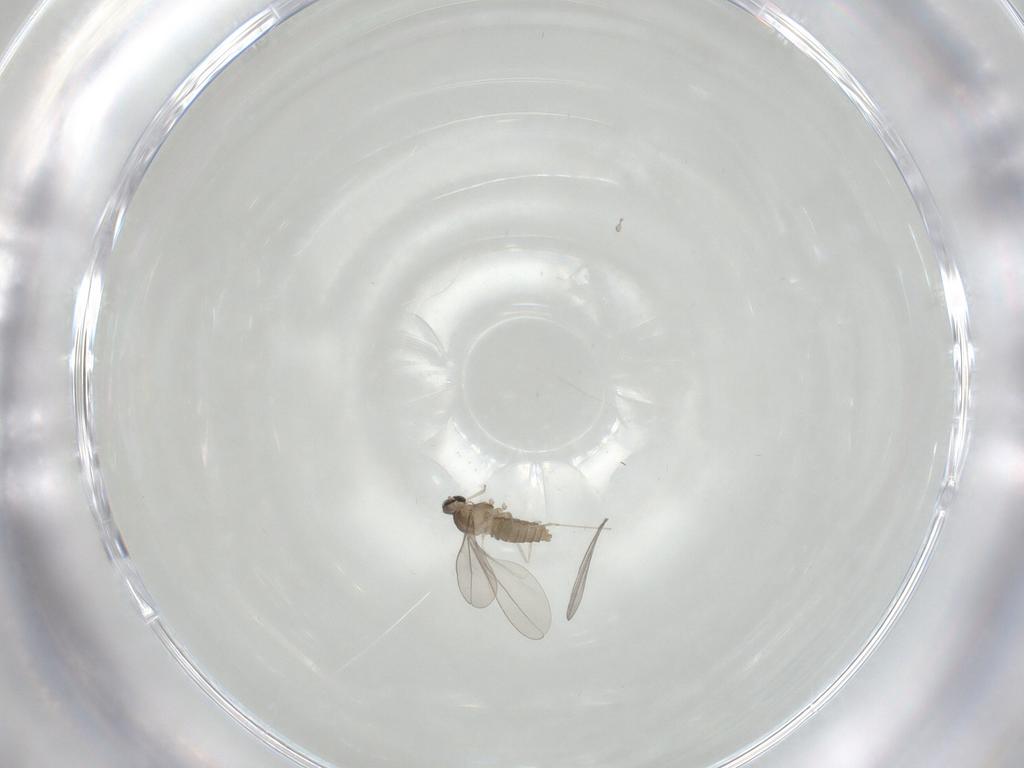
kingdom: Animalia
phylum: Arthropoda
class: Insecta
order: Diptera
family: Cecidomyiidae
